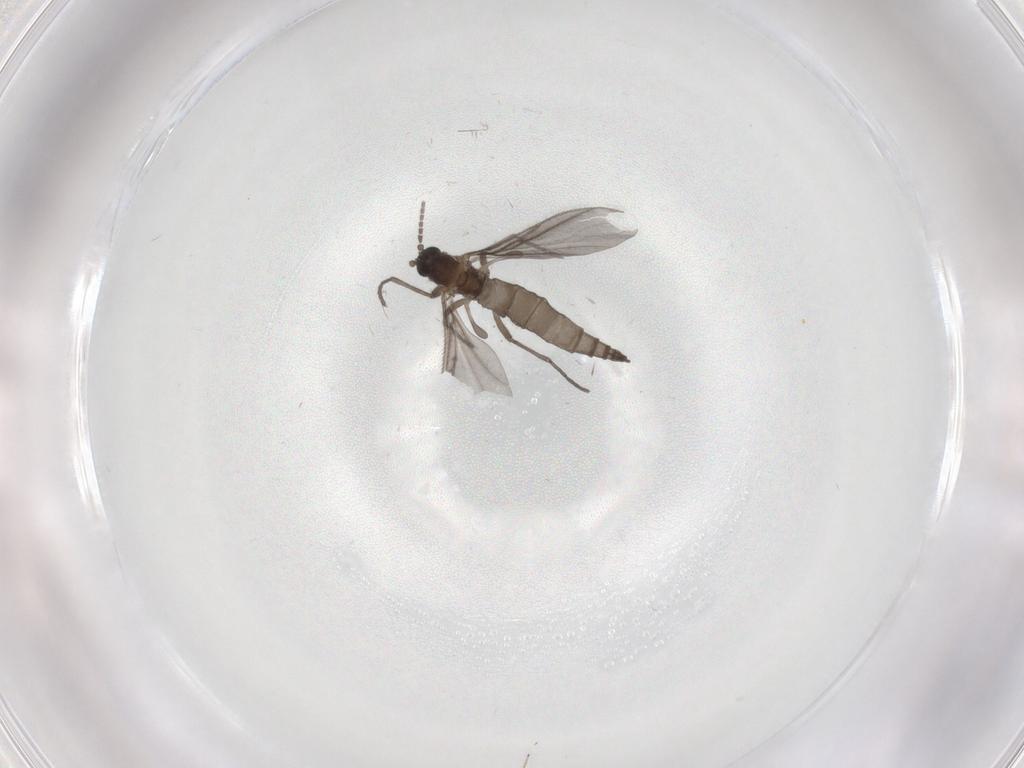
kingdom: Animalia
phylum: Arthropoda
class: Insecta
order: Diptera
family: Sciaridae
